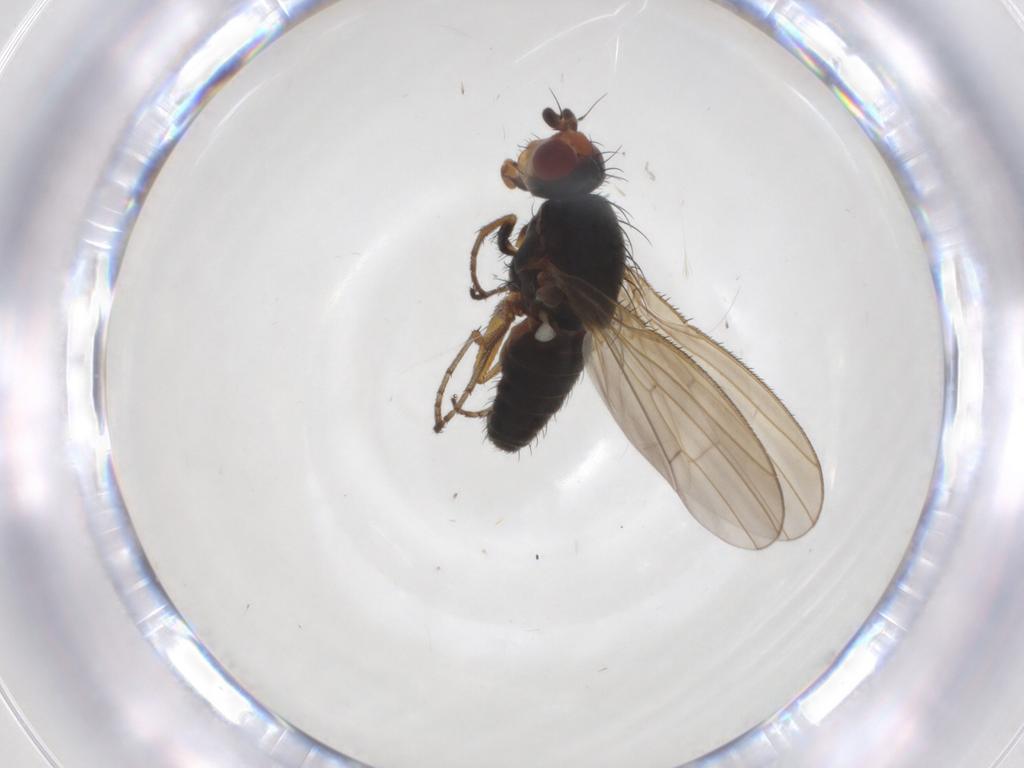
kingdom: Animalia
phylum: Arthropoda
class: Insecta
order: Diptera
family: Heleomyzidae
